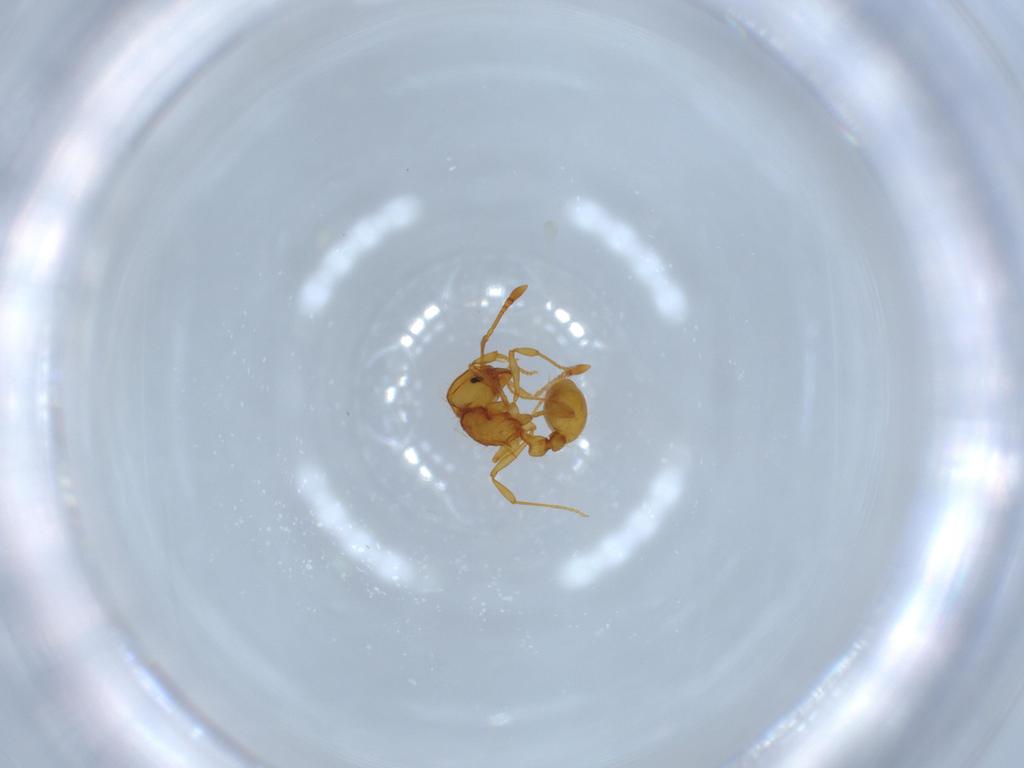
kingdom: Animalia
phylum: Arthropoda
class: Insecta
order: Hymenoptera
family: Formicidae
